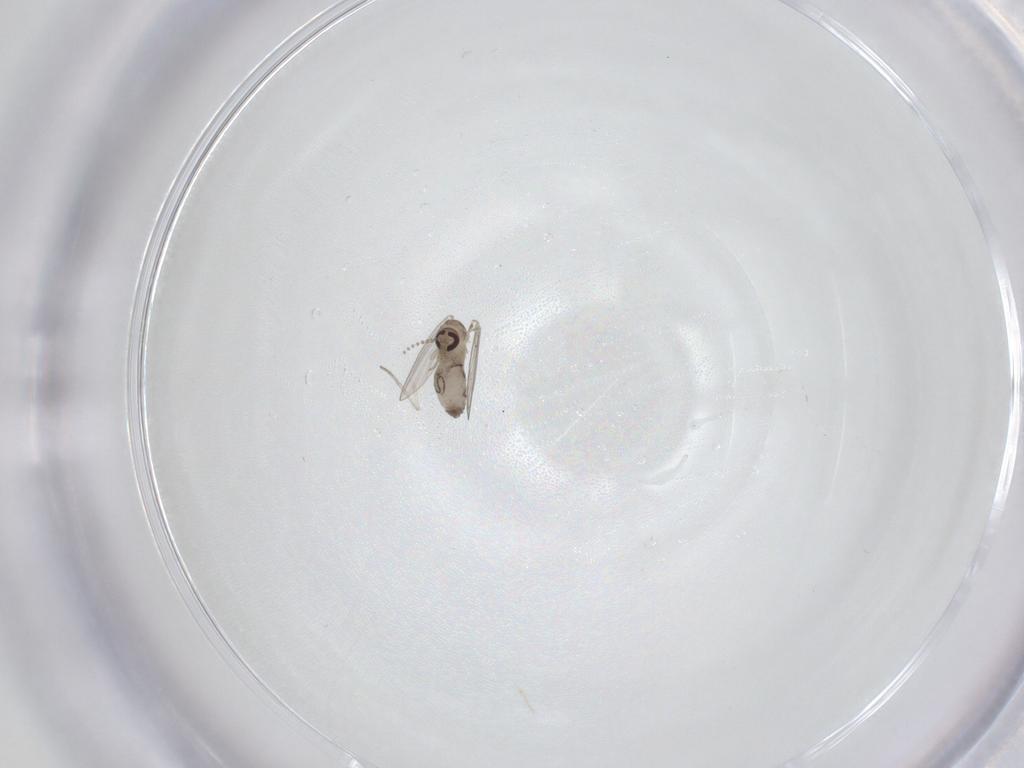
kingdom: Animalia
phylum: Arthropoda
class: Insecta
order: Diptera
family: Psychodidae
